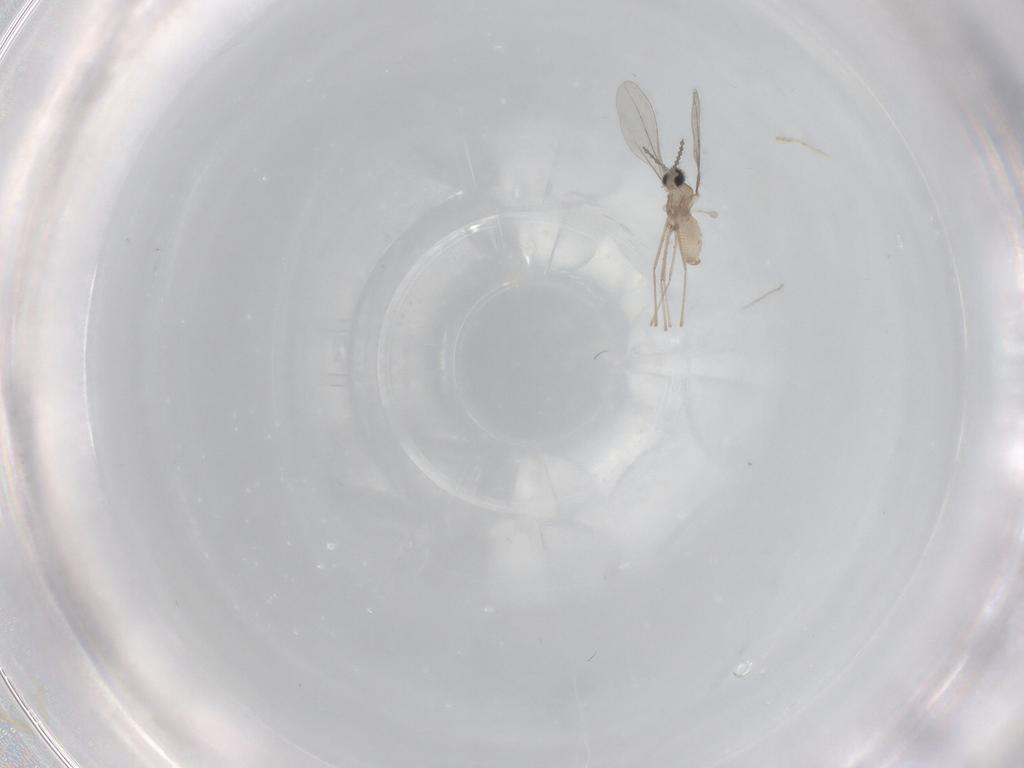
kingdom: Animalia
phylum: Arthropoda
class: Insecta
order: Diptera
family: Cecidomyiidae
